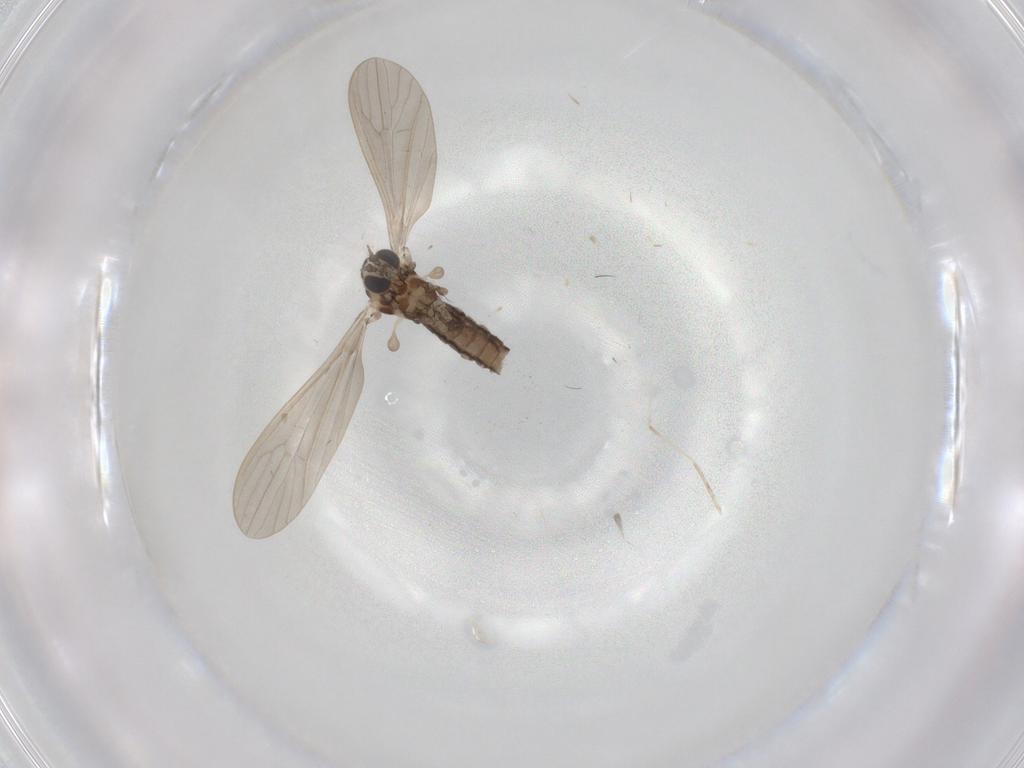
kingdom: Animalia
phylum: Arthropoda
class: Insecta
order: Diptera
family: Limoniidae
